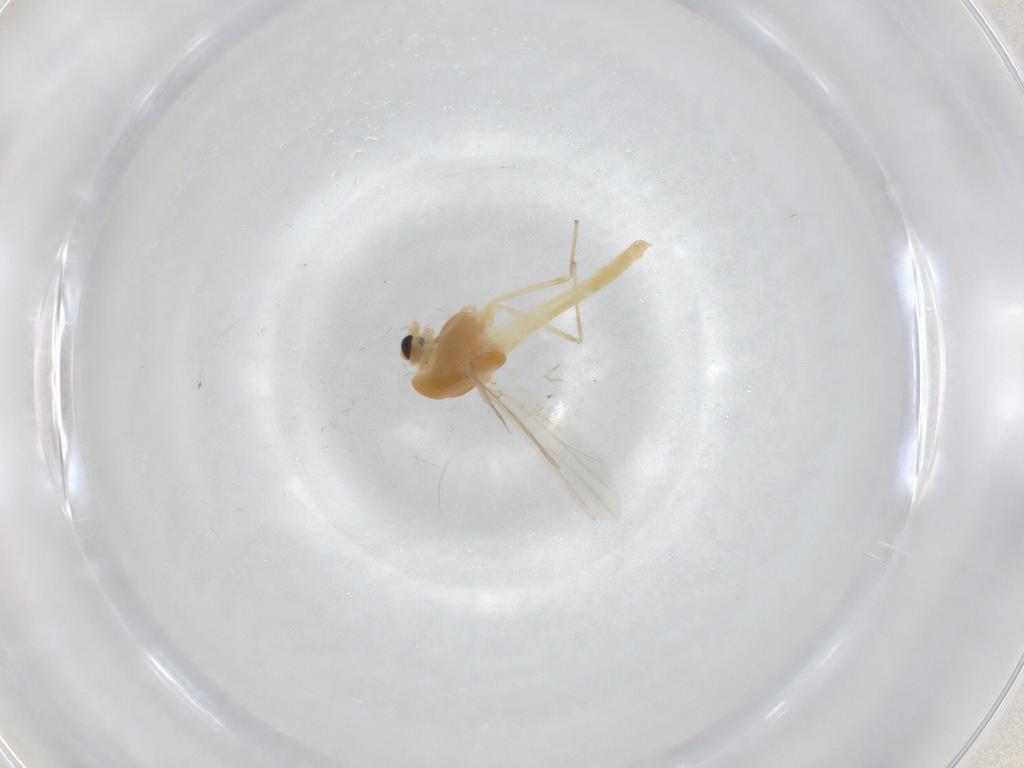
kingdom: Animalia
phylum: Arthropoda
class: Insecta
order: Diptera
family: Chironomidae
